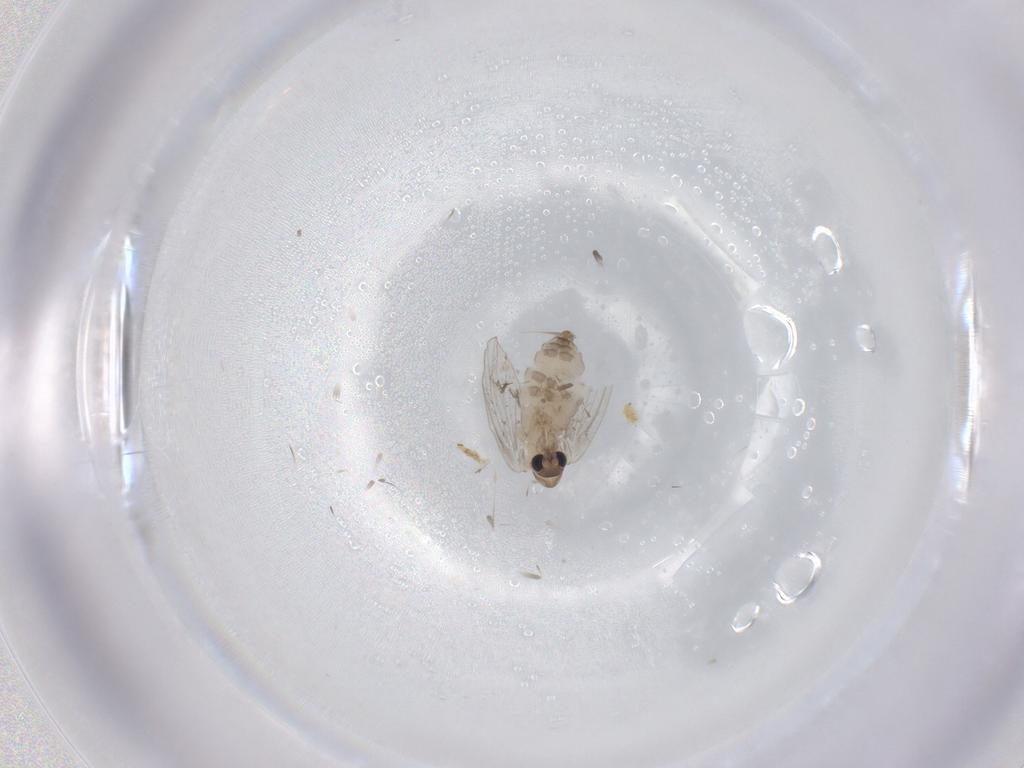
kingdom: Animalia
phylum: Arthropoda
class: Insecta
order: Diptera
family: Psychodidae
